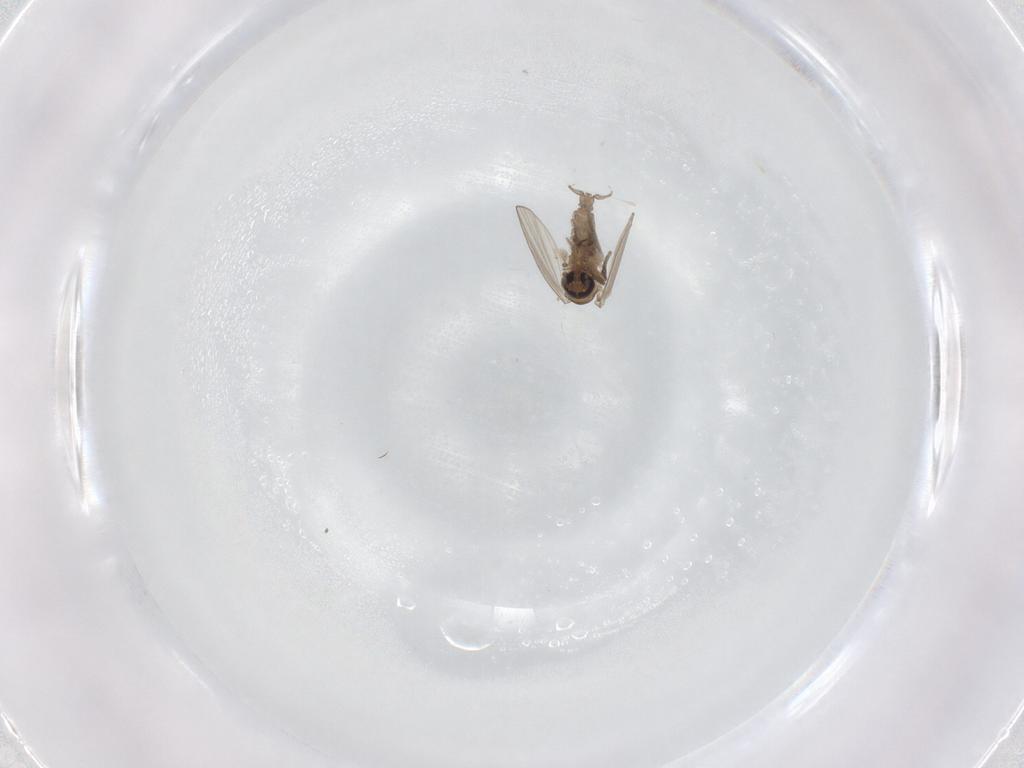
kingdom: Animalia
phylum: Arthropoda
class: Insecta
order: Diptera
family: Psychodidae
